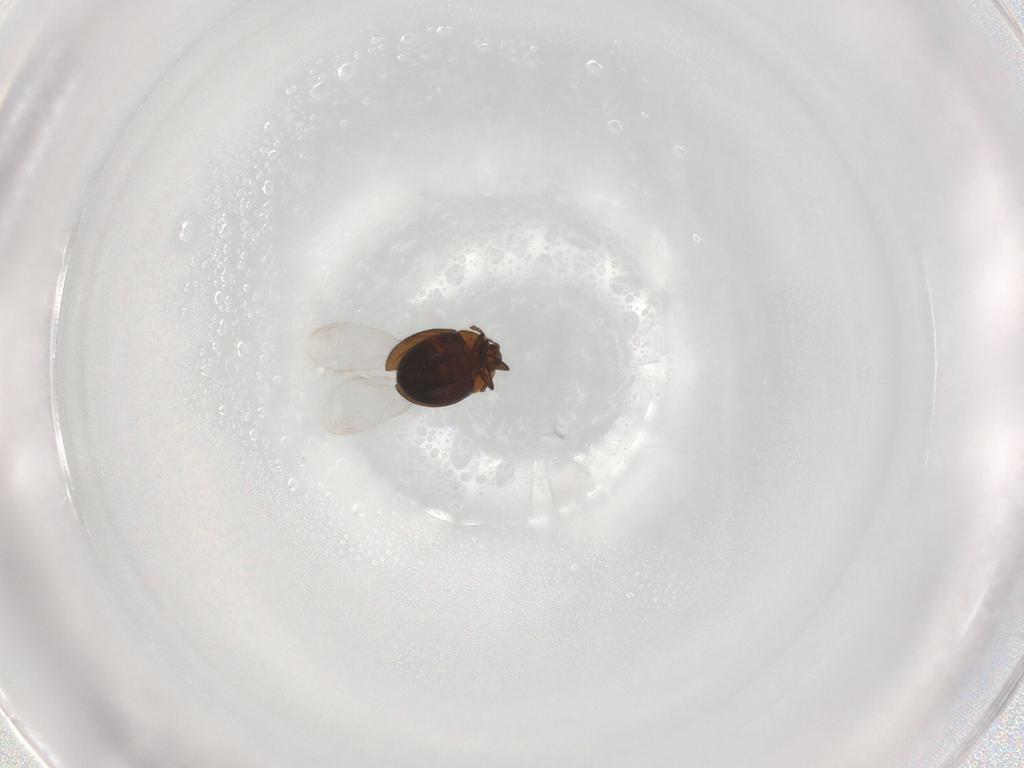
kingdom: Animalia
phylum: Arthropoda
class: Insecta
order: Coleoptera
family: Corylophidae
